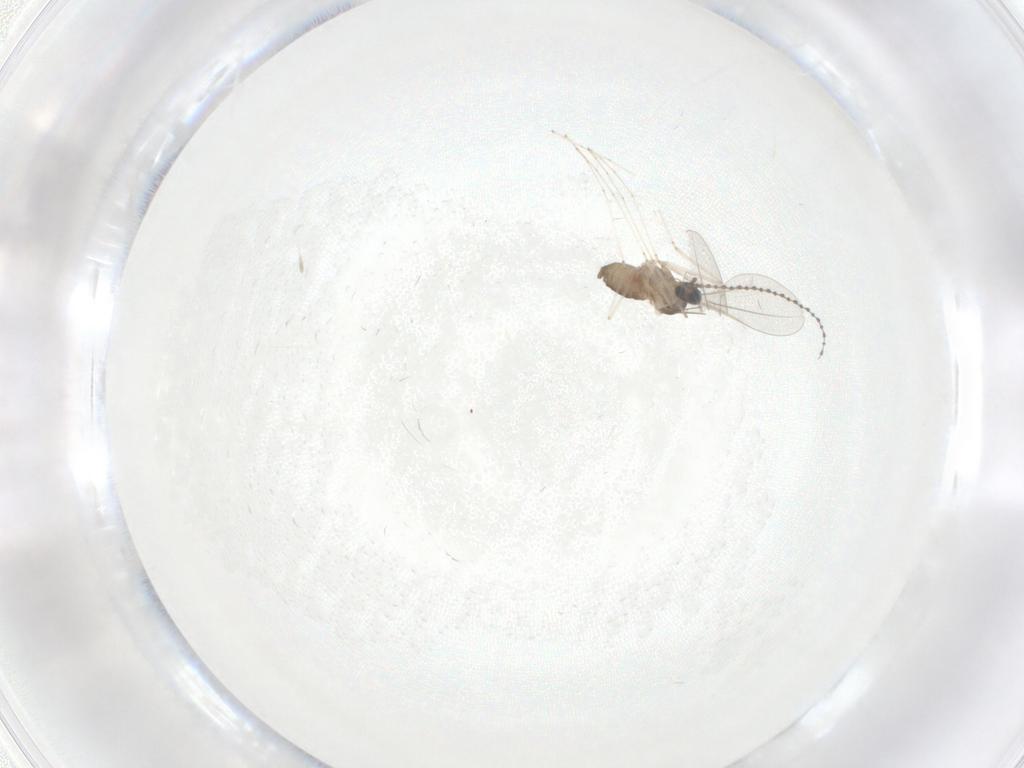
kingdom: Animalia
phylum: Arthropoda
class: Insecta
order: Diptera
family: Cecidomyiidae
